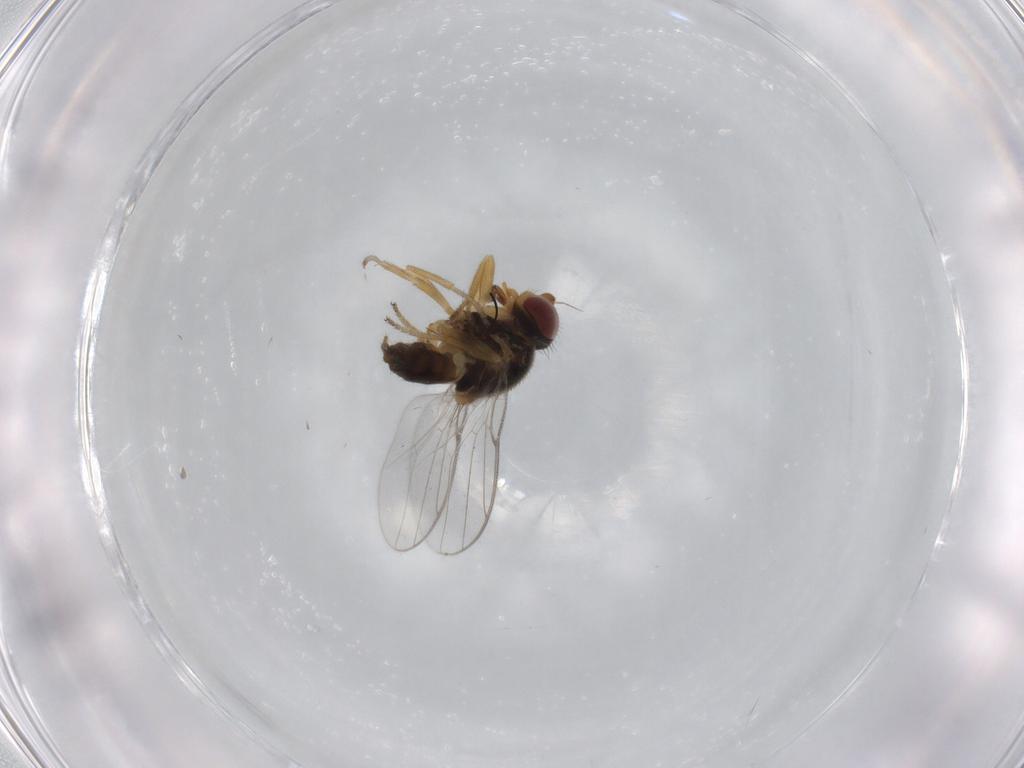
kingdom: Animalia
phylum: Arthropoda
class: Insecta
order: Diptera
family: Chloropidae
